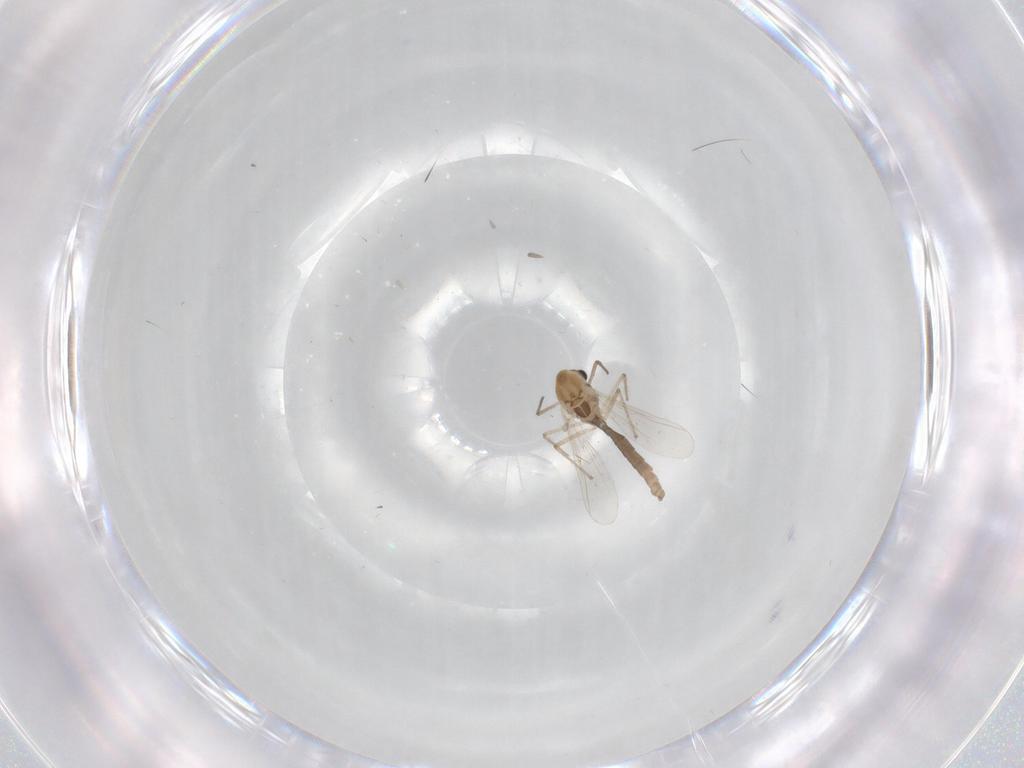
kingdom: Animalia
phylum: Arthropoda
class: Insecta
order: Diptera
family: Chironomidae
